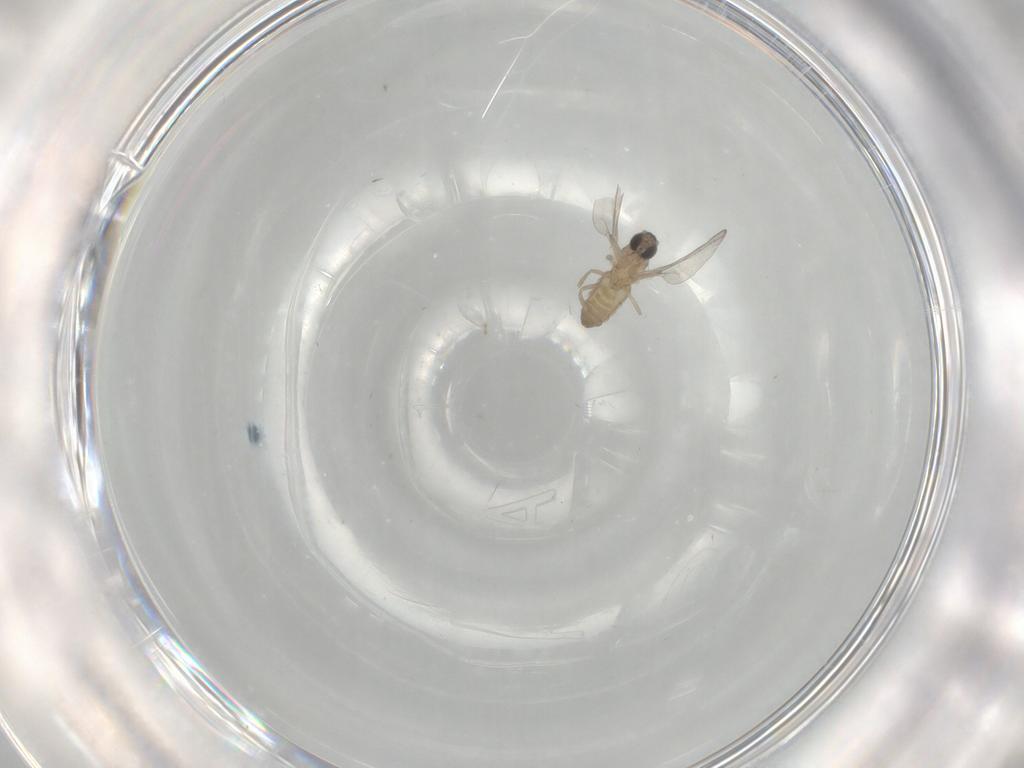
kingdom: Animalia
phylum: Arthropoda
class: Insecta
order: Diptera
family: Cecidomyiidae
